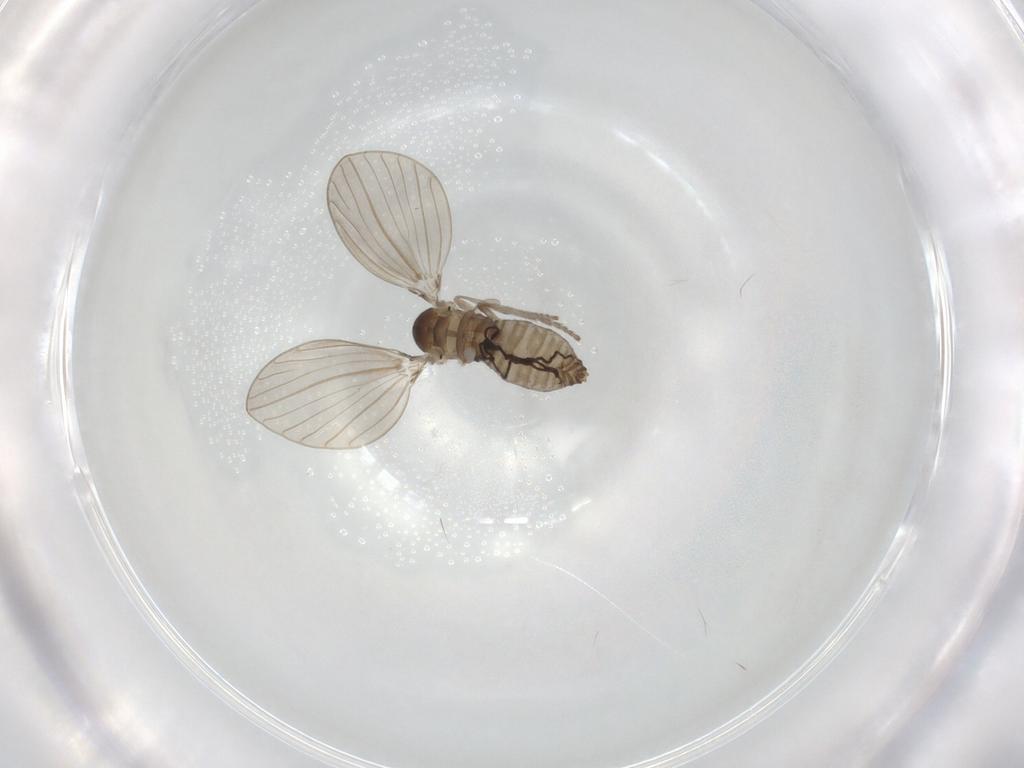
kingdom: Animalia
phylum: Arthropoda
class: Insecta
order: Diptera
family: Psychodidae
